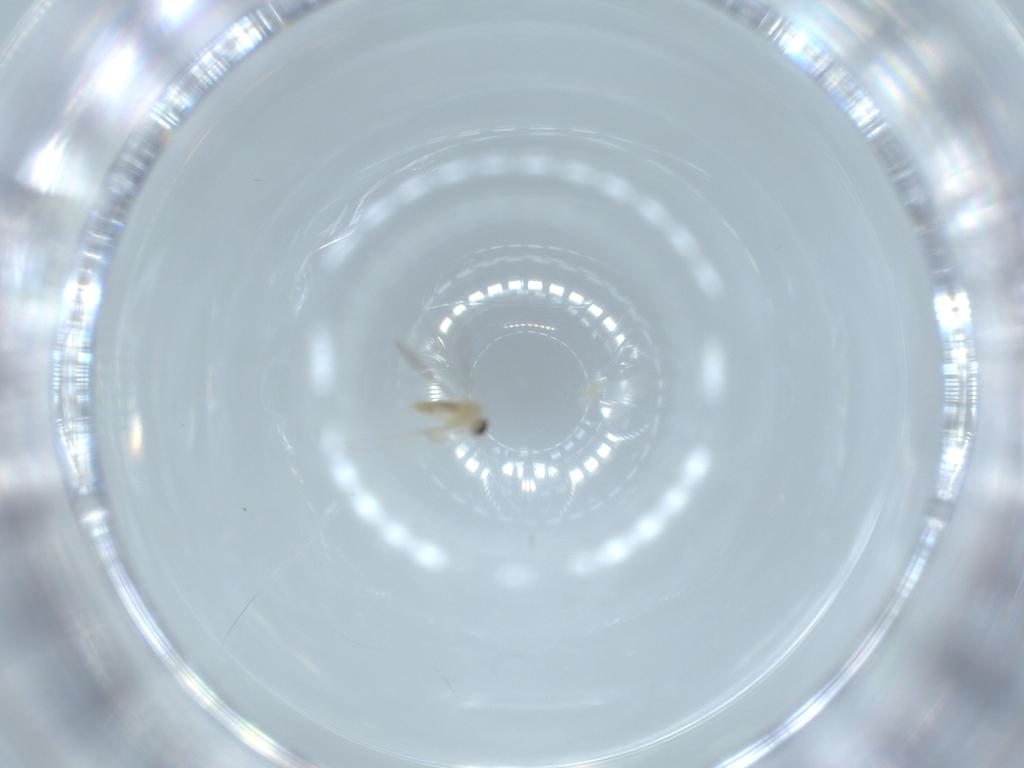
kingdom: Animalia
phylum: Arthropoda
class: Insecta
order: Diptera
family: Cecidomyiidae
